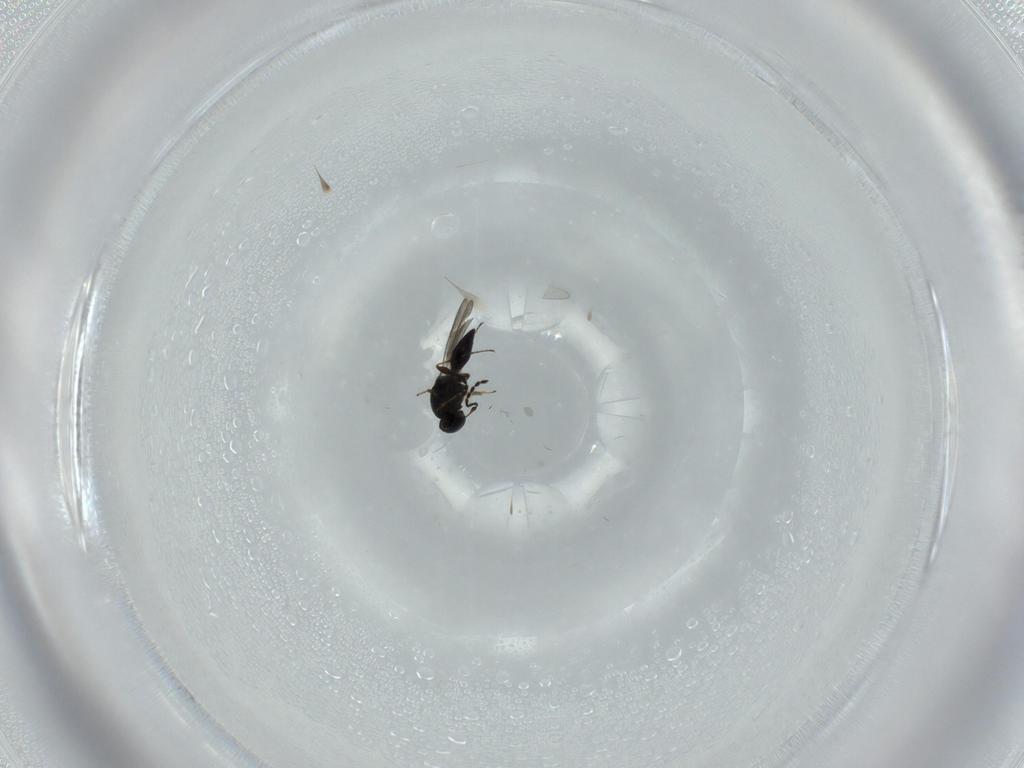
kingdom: Animalia
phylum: Arthropoda
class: Insecta
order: Hymenoptera
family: Platygastridae
